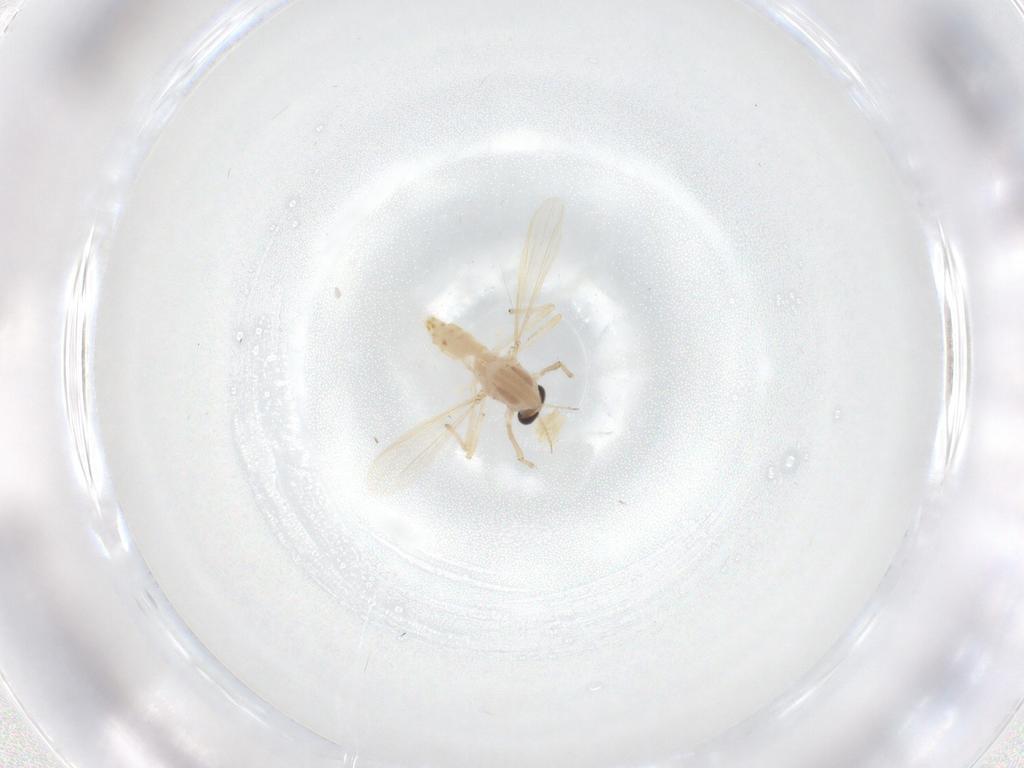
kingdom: Animalia
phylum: Arthropoda
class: Insecta
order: Diptera
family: Chironomidae
